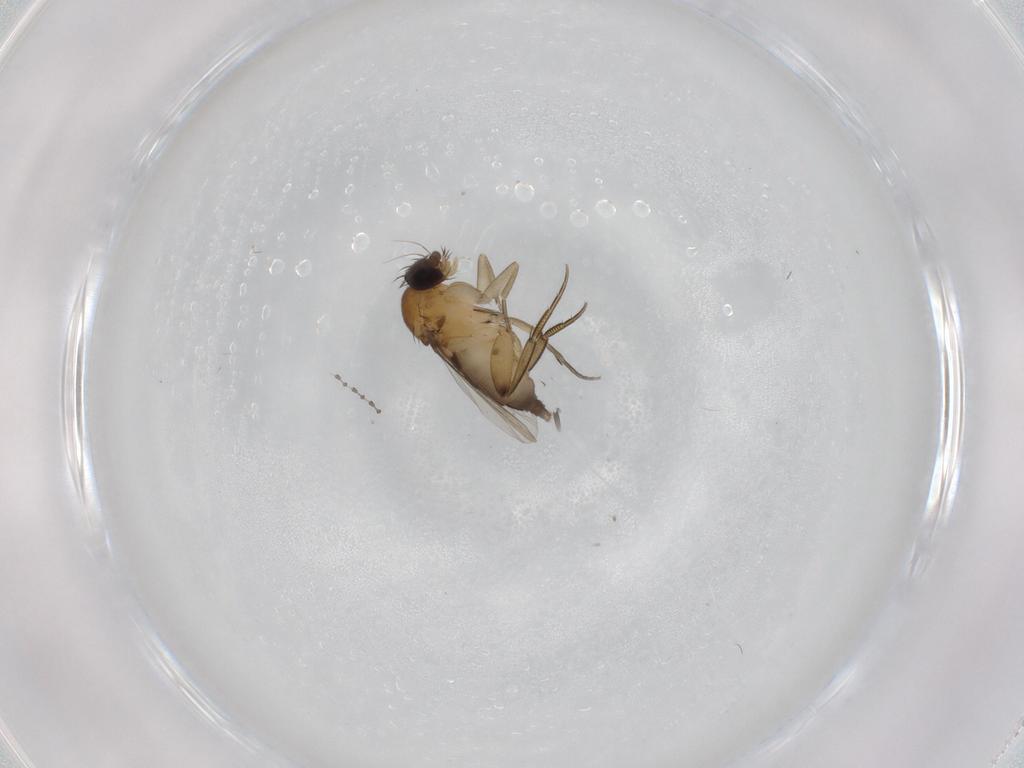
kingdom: Animalia
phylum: Arthropoda
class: Insecta
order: Diptera
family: Phoridae
